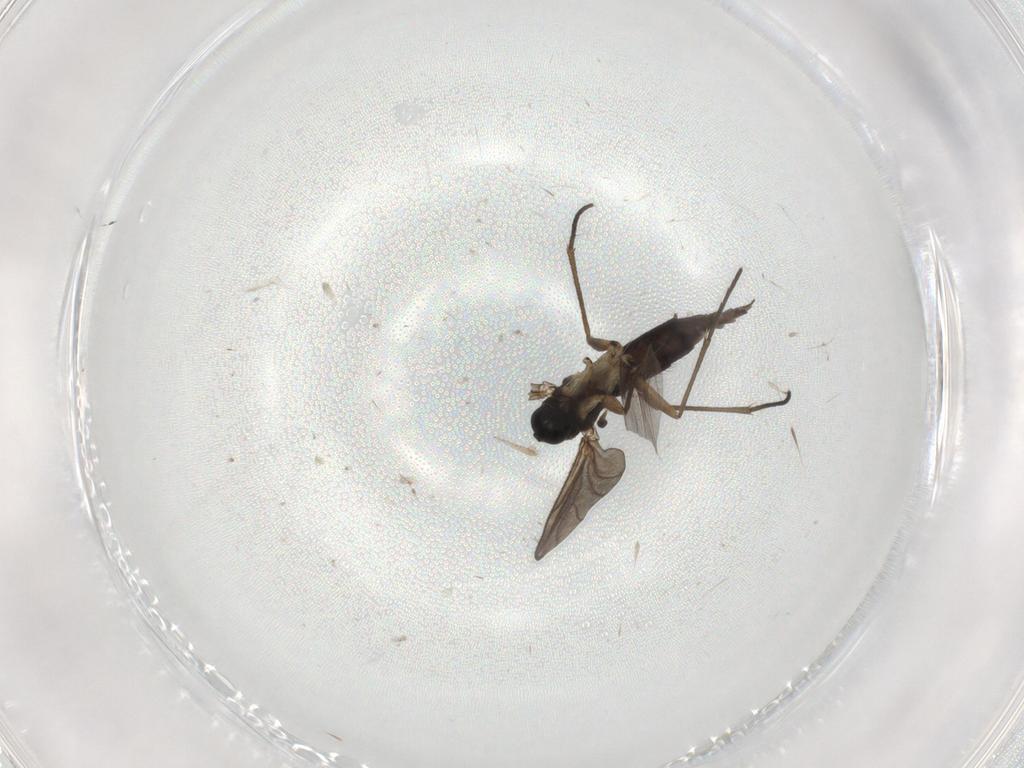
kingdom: Animalia
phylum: Arthropoda
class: Insecta
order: Diptera
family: Sciaridae
